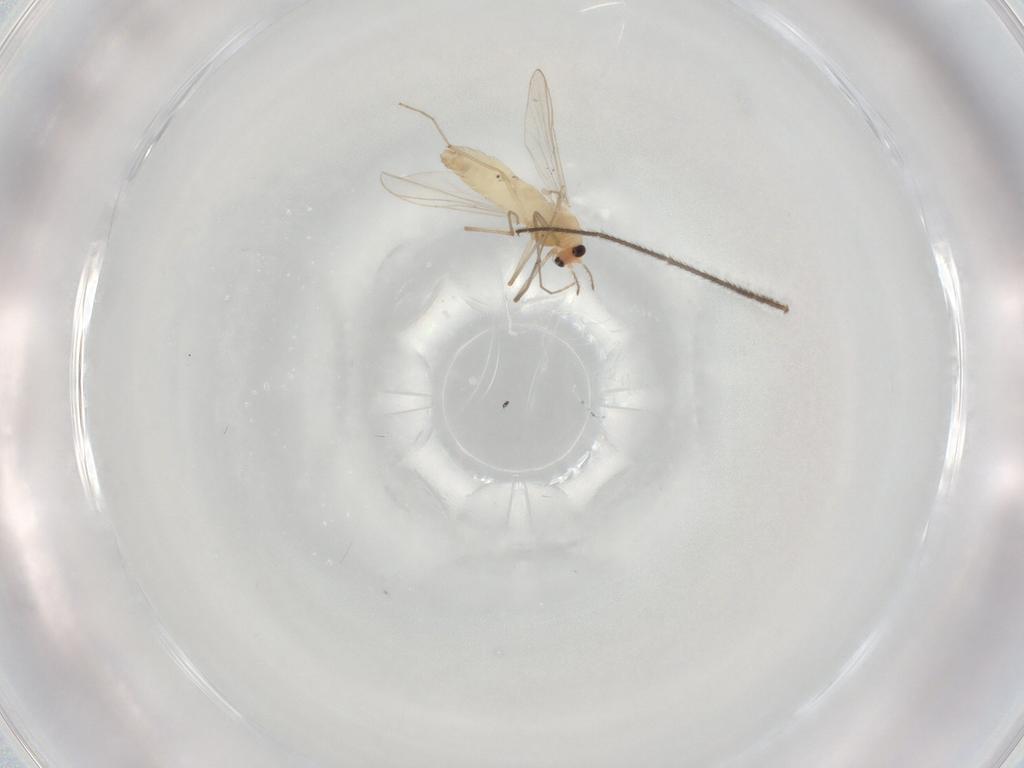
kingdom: Animalia
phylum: Arthropoda
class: Insecta
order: Diptera
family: Chironomidae
